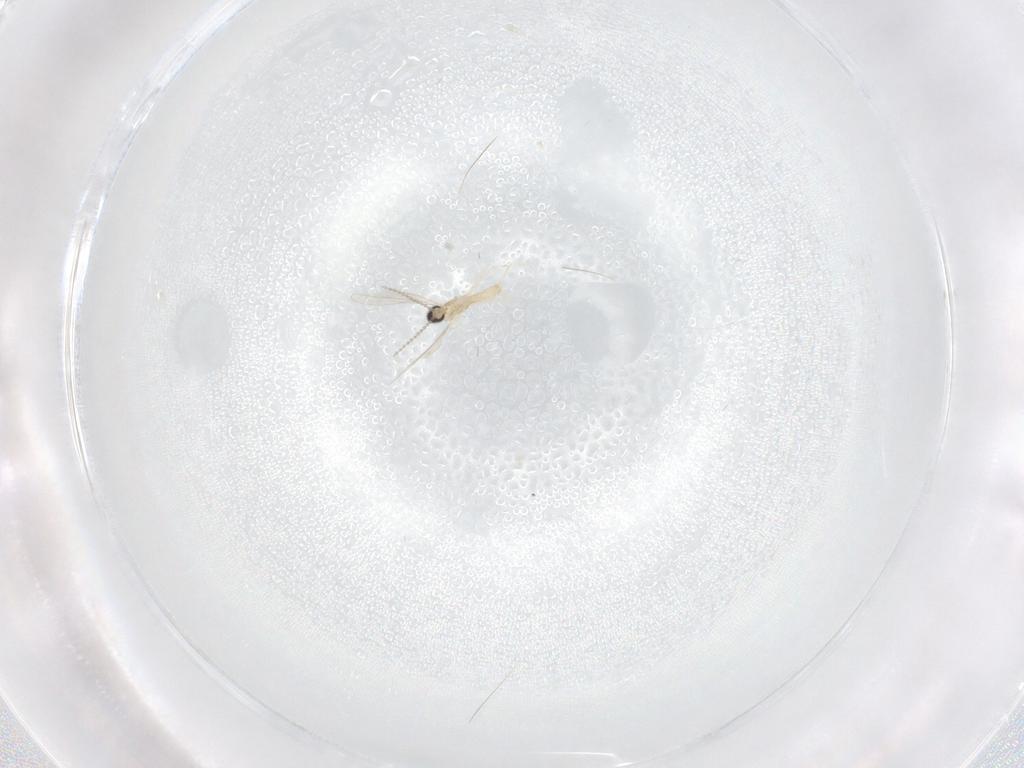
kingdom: Animalia
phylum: Arthropoda
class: Insecta
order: Diptera
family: Cecidomyiidae
